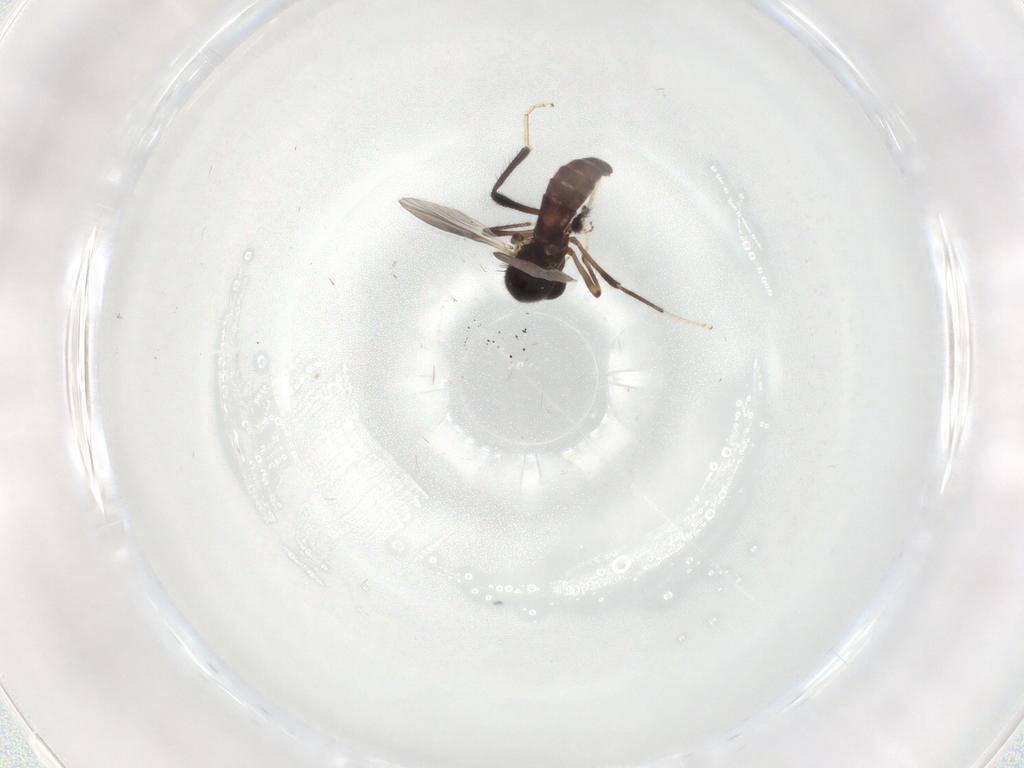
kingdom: Animalia
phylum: Arthropoda
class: Insecta
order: Diptera
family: Ceratopogonidae
